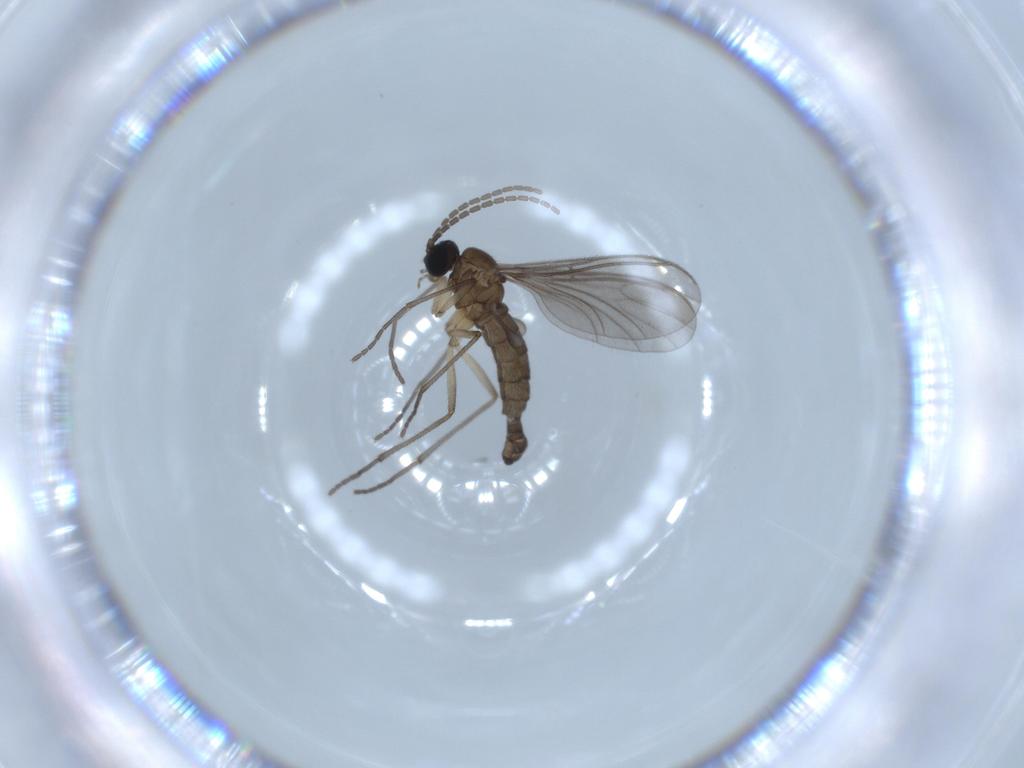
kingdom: Animalia
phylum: Arthropoda
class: Insecta
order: Diptera
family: Sciaridae
